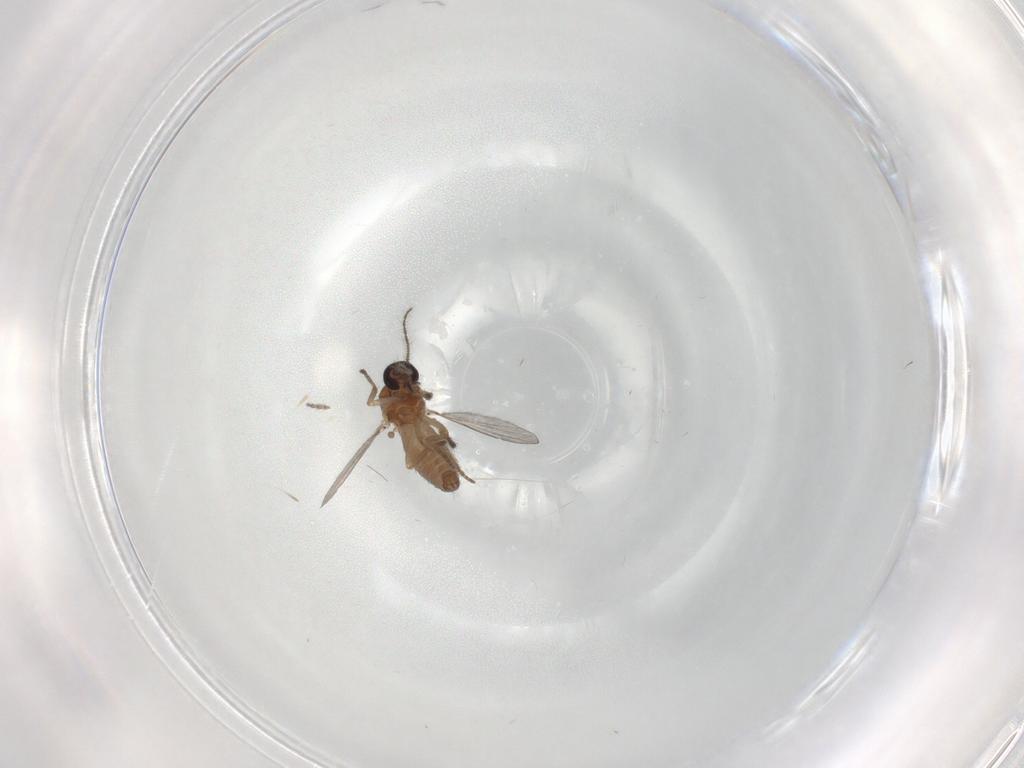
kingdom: Animalia
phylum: Arthropoda
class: Insecta
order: Diptera
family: Ceratopogonidae
